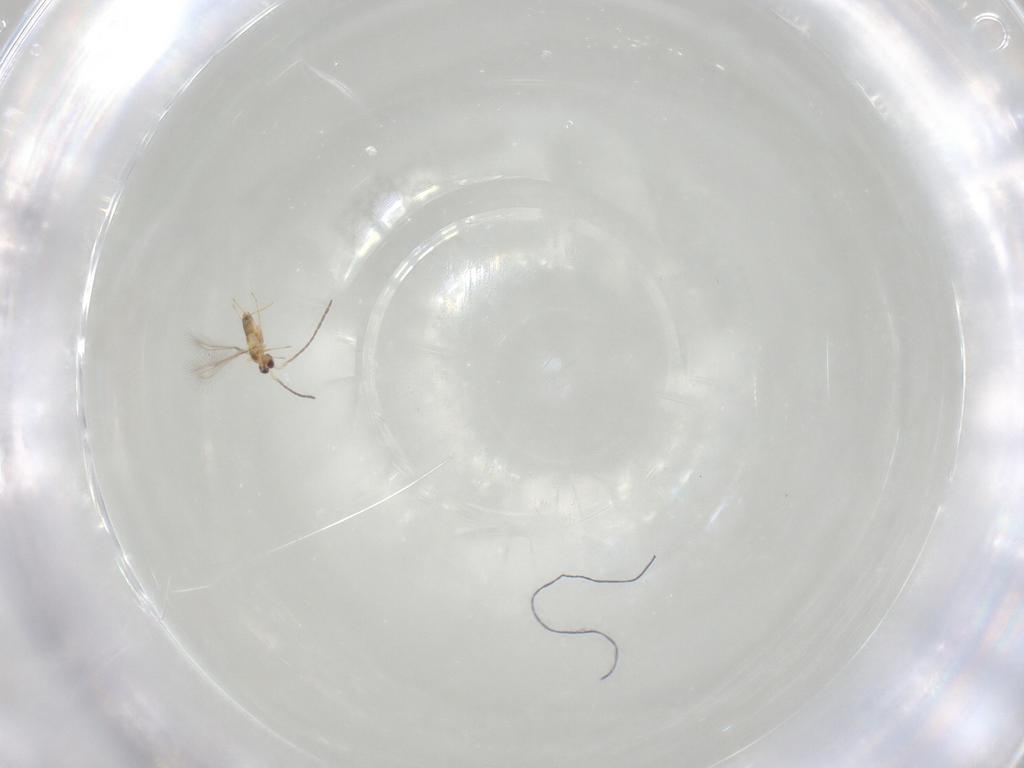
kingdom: Animalia
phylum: Arthropoda
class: Insecta
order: Hymenoptera
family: Mymaridae
